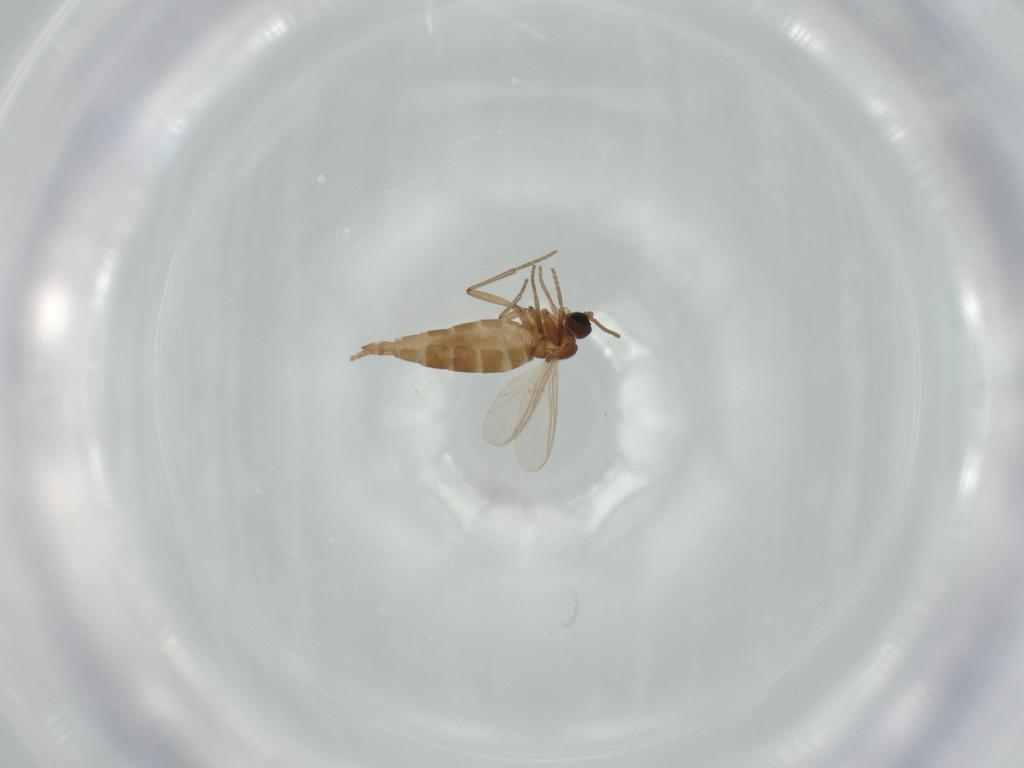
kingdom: Animalia
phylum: Arthropoda
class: Insecta
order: Diptera
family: Sciaridae
